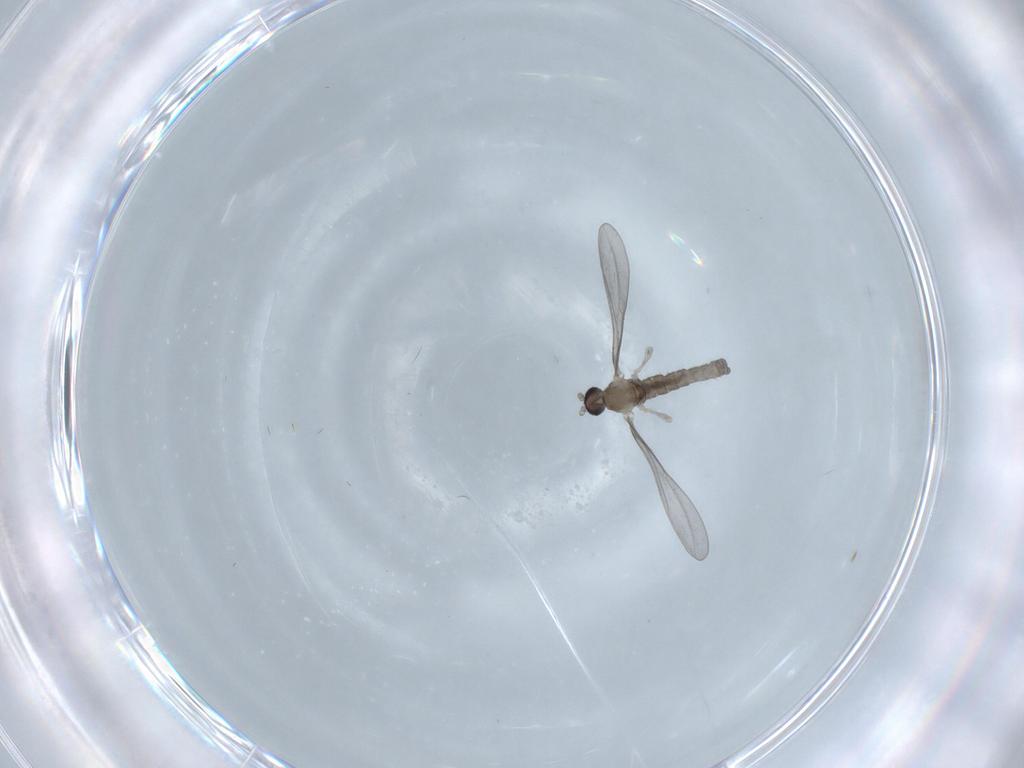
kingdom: Animalia
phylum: Arthropoda
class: Insecta
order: Diptera
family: Cecidomyiidae
